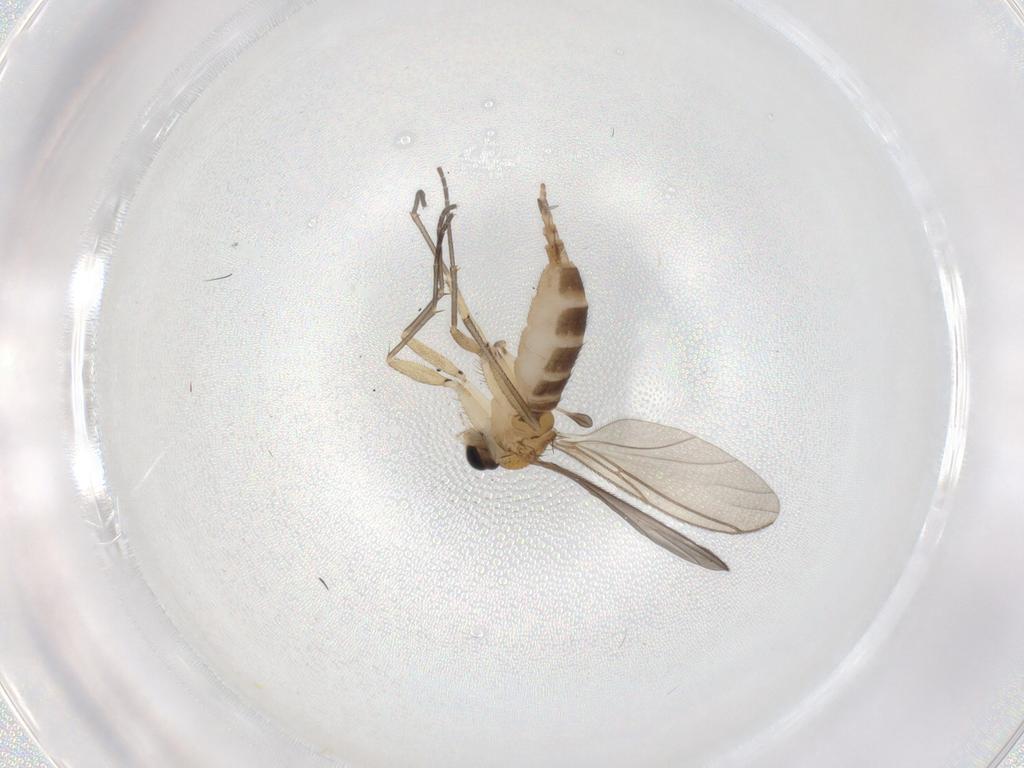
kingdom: Animalia
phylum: Arthropoda
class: Insecta
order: Diptera
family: Sciaridae
